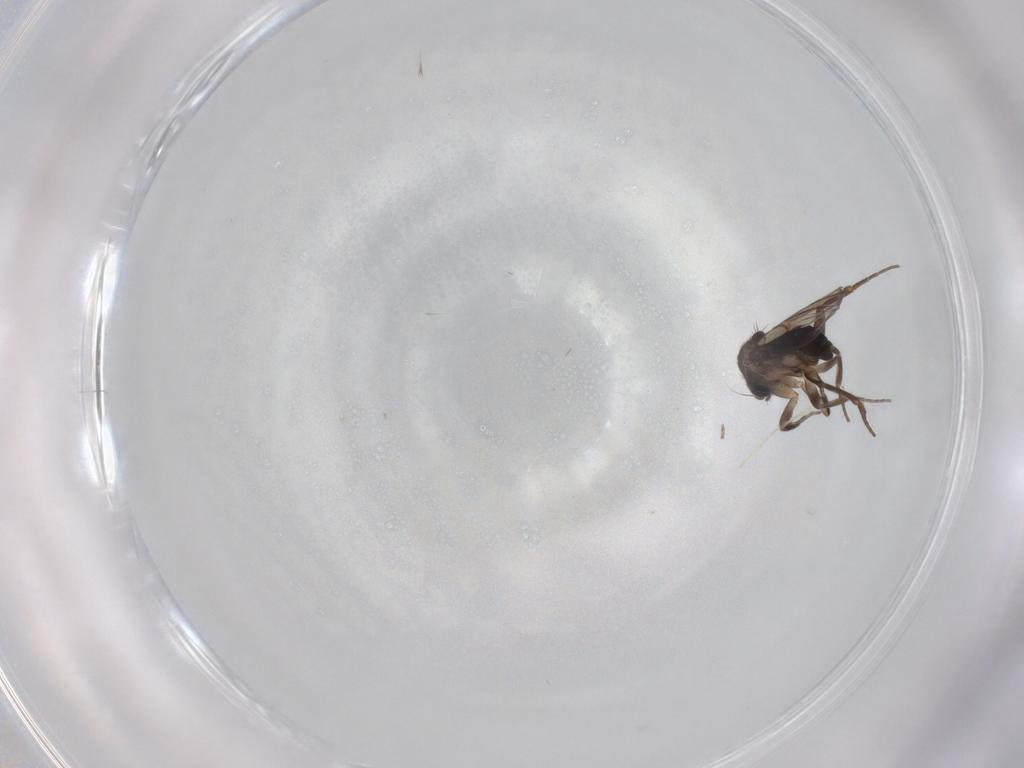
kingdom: Animalia
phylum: Arthropoda
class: Insecta
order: Diptera
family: Phoridae
